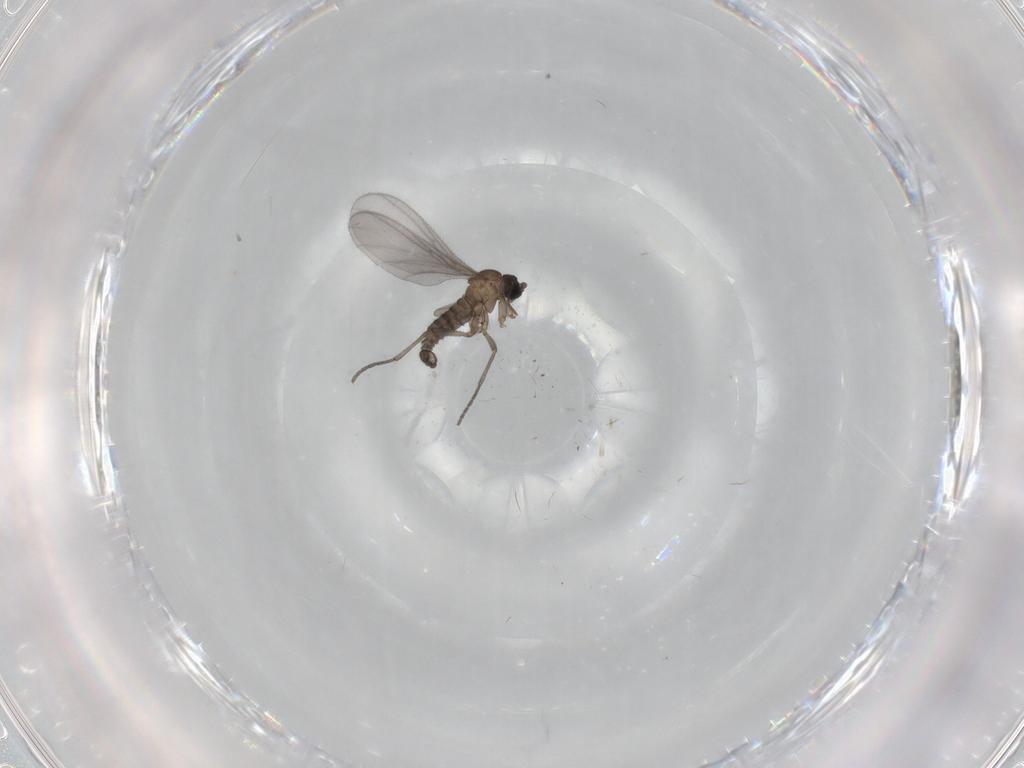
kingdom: Animalia
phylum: Arthropoda
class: Insecta
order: Diptera
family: Sciaridae
